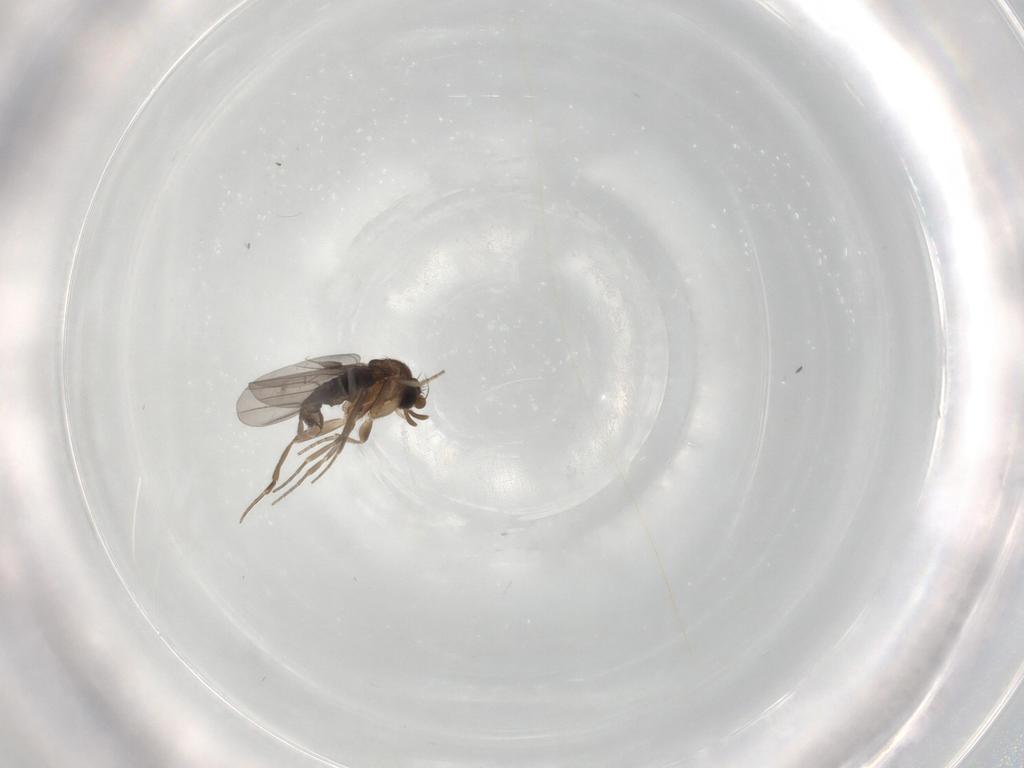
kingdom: Animalia
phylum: Arthropoda
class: Insecta
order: Diptera
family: Phoridae
